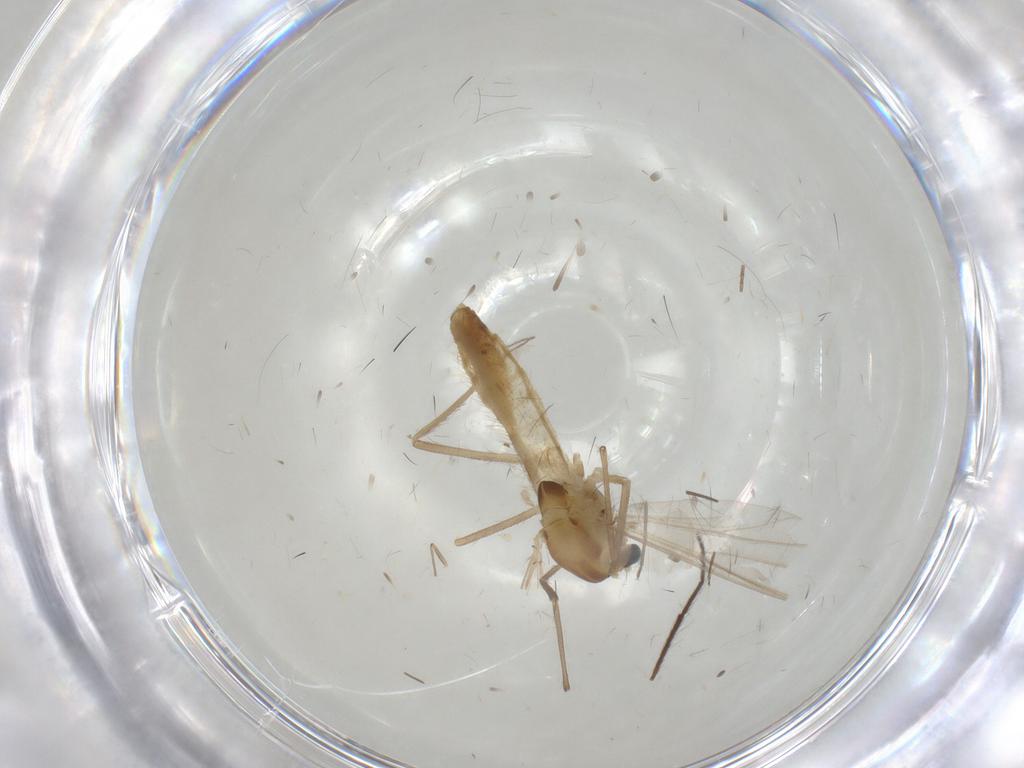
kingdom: Animalia
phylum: Arthropoda
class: Insecta
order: Diptera
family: Chironomidae
